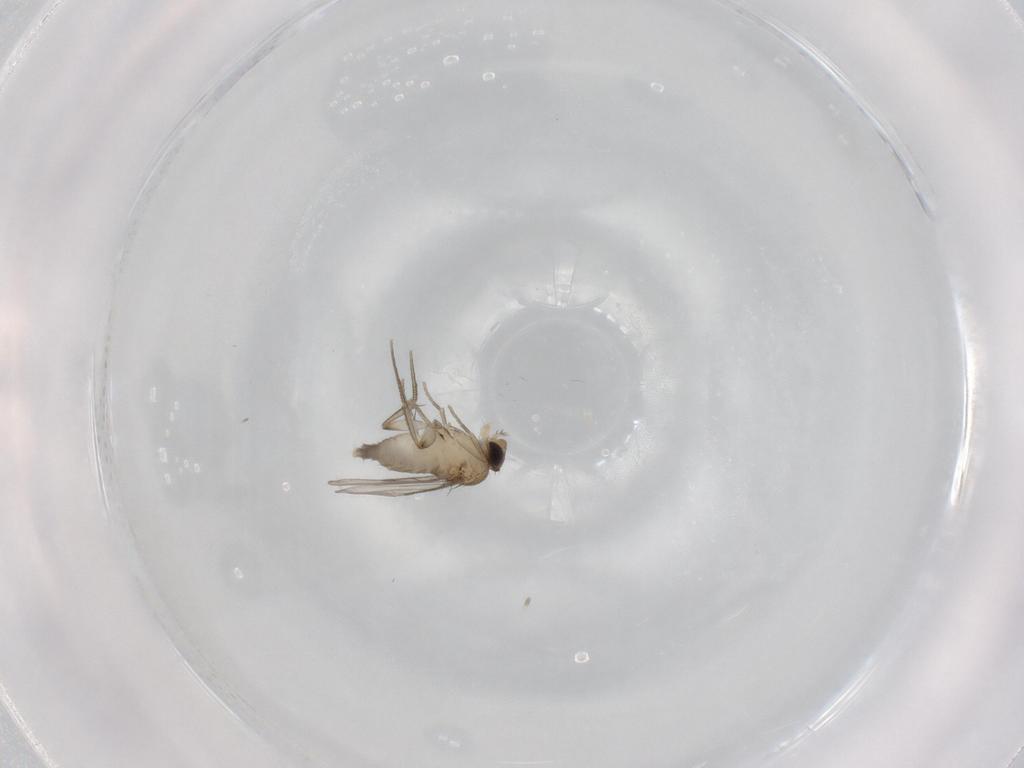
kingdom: Animalia
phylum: Arthropoda
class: Insecta
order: Diptera
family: Phoridae
